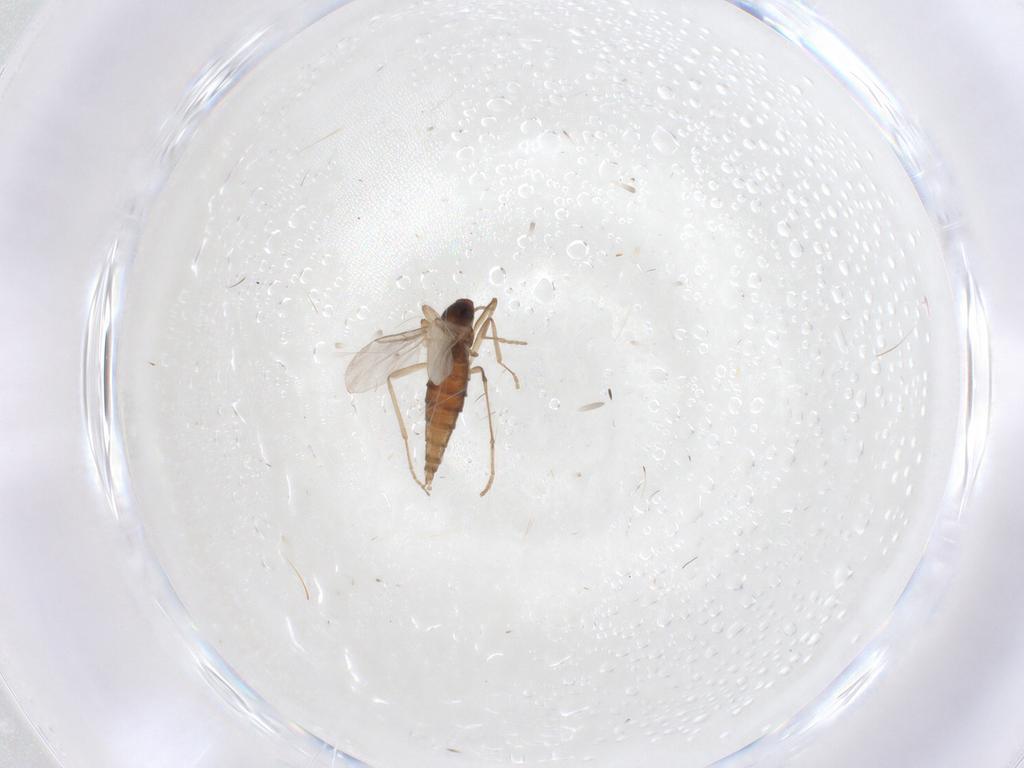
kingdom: Animalia
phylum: Arthropoda
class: Insecta
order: Diptera
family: Cecidomyiidae
